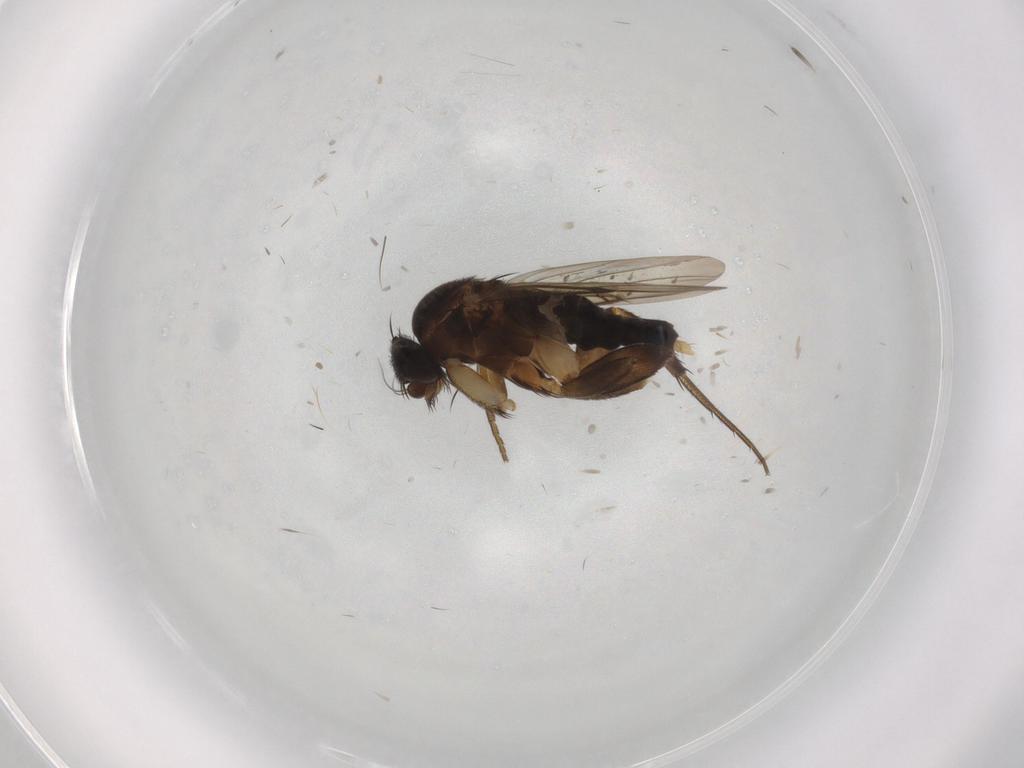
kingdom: Animalia
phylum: Arthropoda
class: Insecta
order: Diptera
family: Phoridae
